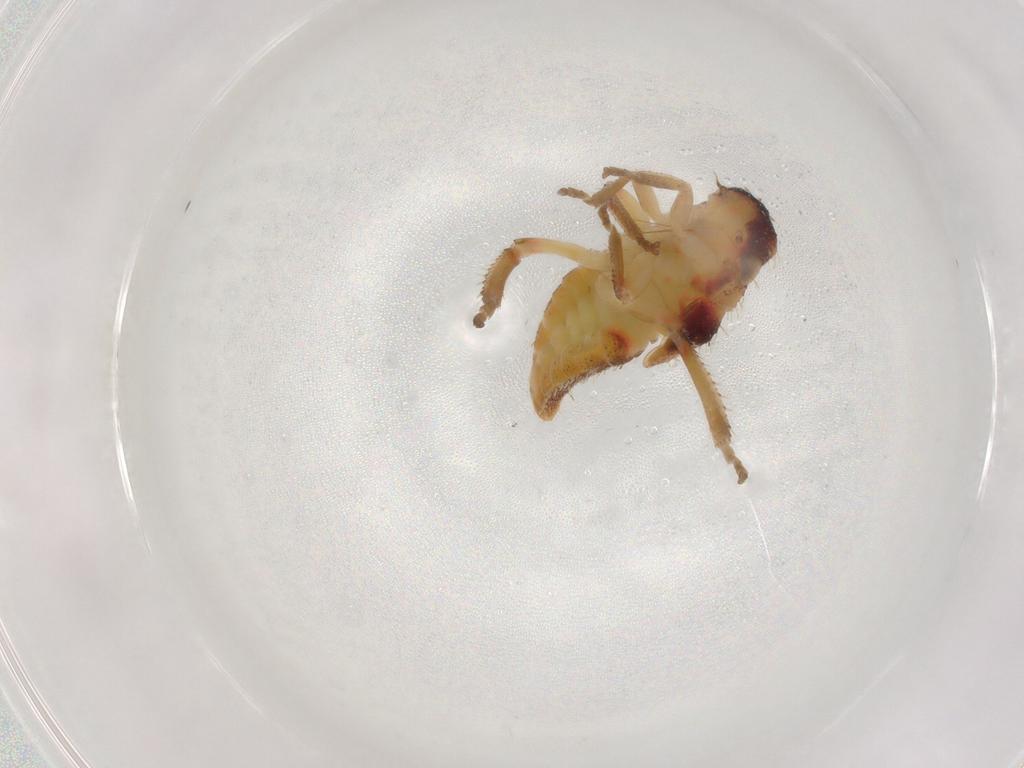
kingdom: Animalia
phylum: Arthropoda
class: Insecta
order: Hemiptera
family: Cicadellidae
